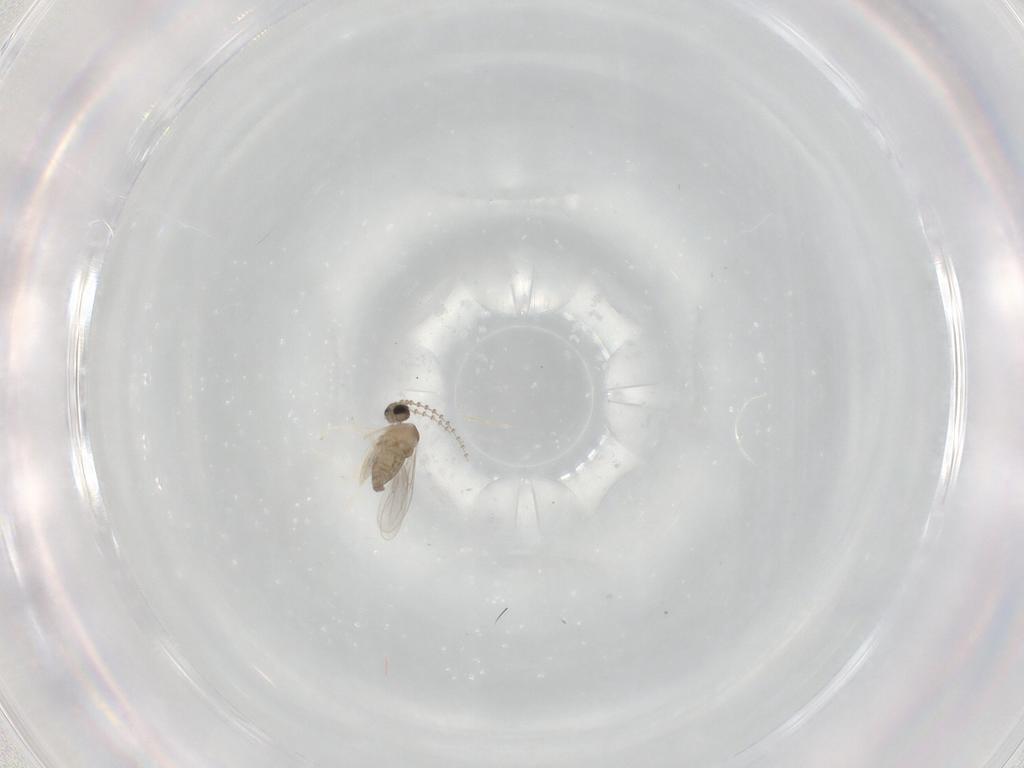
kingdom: Animalia
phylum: Arthropoda
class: Insecta
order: Diptera
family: Cecidomyiidae
